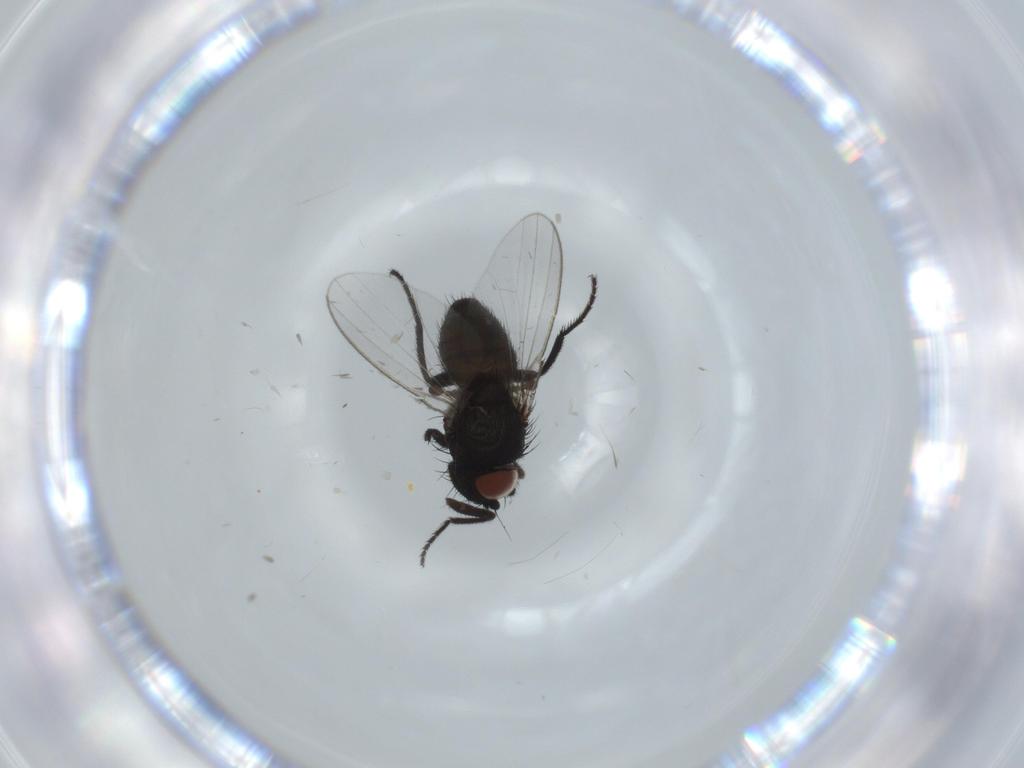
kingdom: Animalia
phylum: Arthropoda
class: Insecta
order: Diptera
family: Milichiidae
